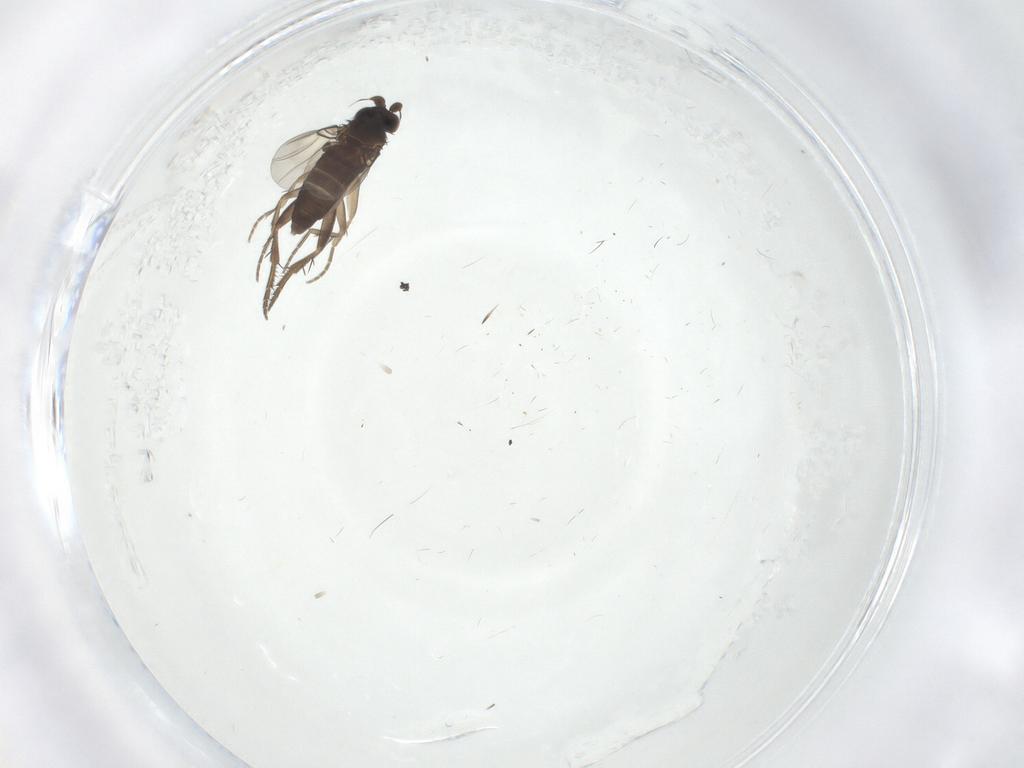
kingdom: Animalia
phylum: Arthropoda
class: Insecta
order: Diptera
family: Phoridae
